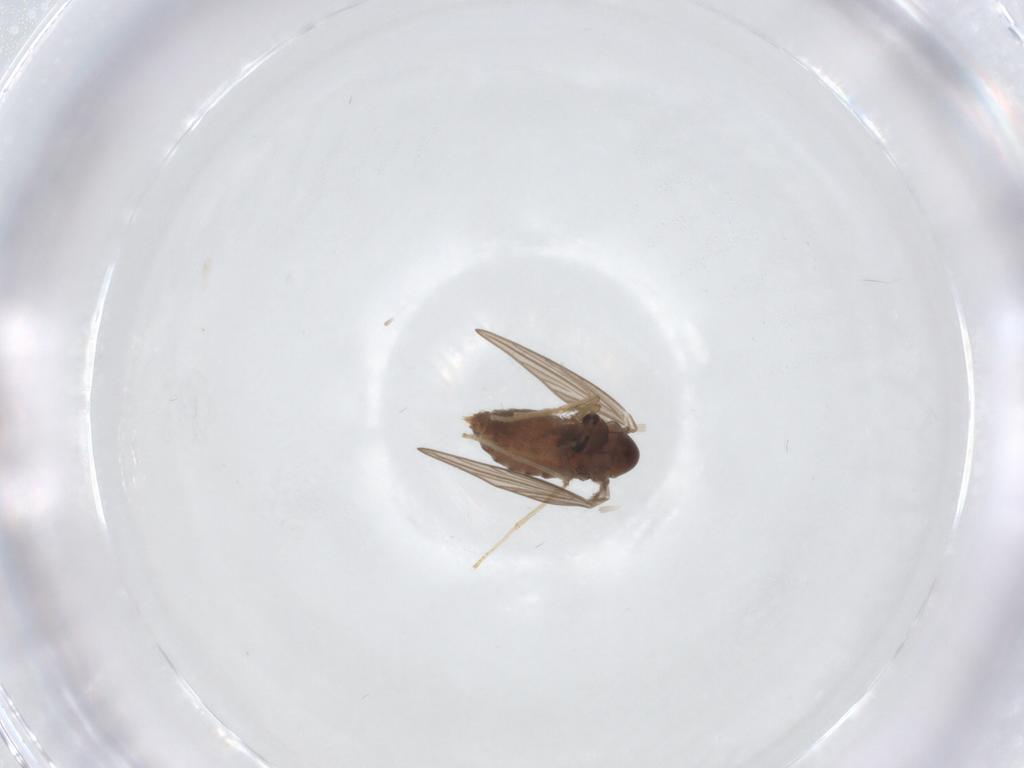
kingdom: Animalia
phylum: Arthropoda
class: Insecta
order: Diptera
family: Psychodidae
